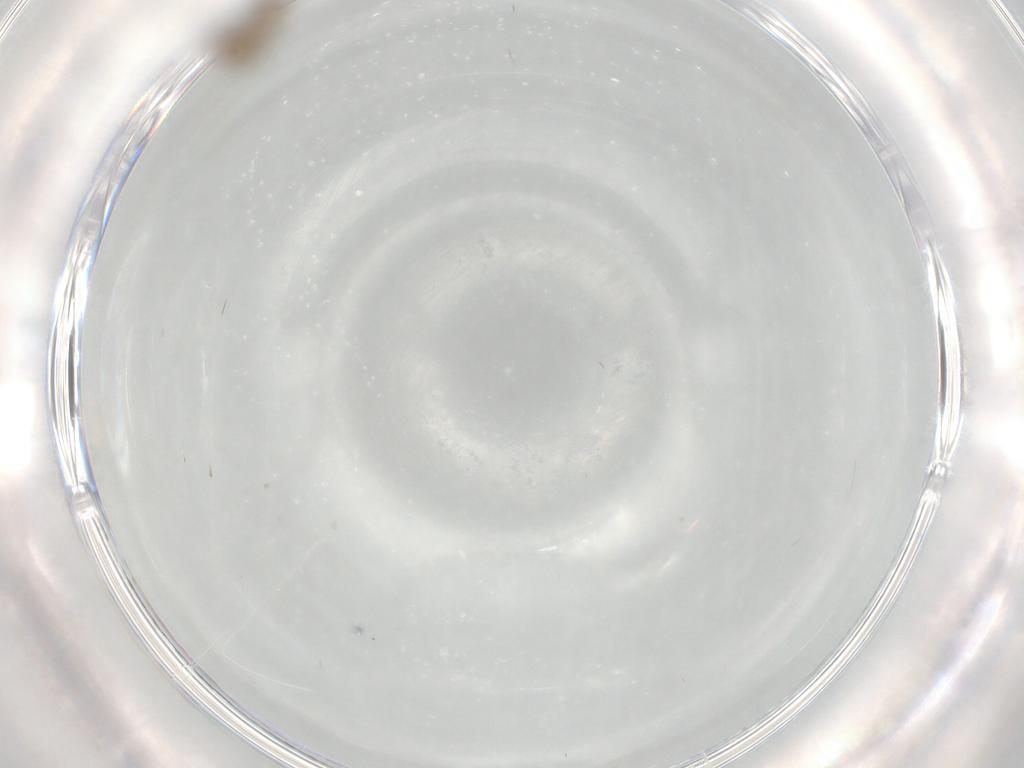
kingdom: Animalia
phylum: Arthropoda
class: Insecta
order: Diptera
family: Cecidomyiidae
